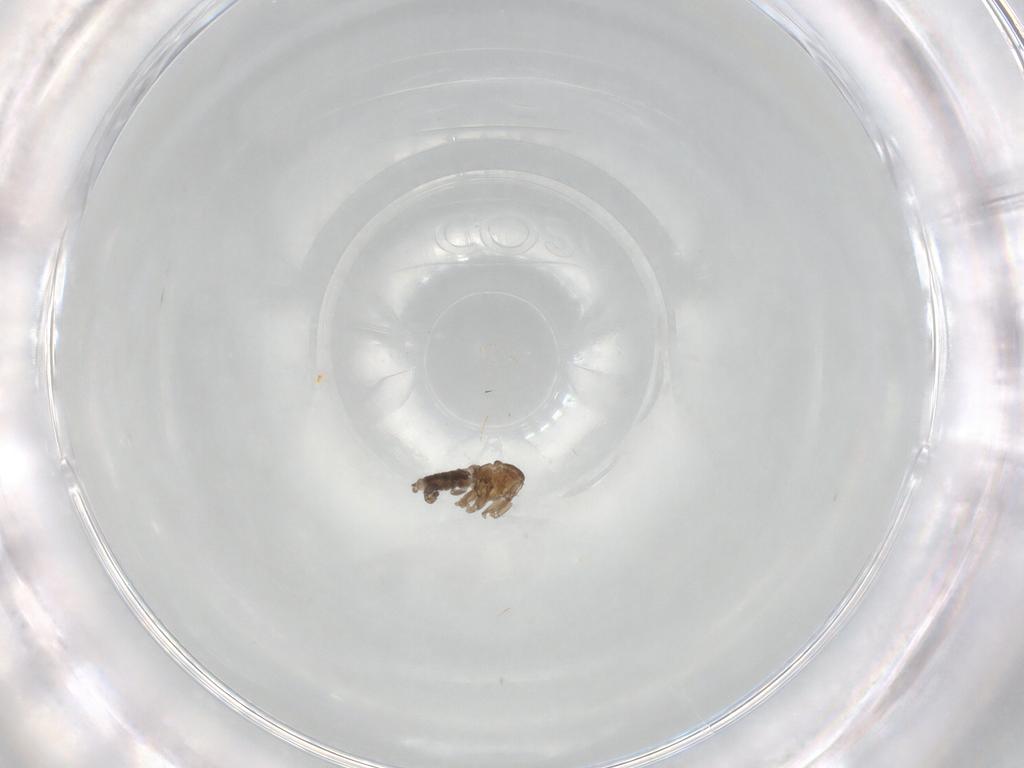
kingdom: Animalia
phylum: Arthropoda
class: Insecta
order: Diptera
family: Sciaridae
